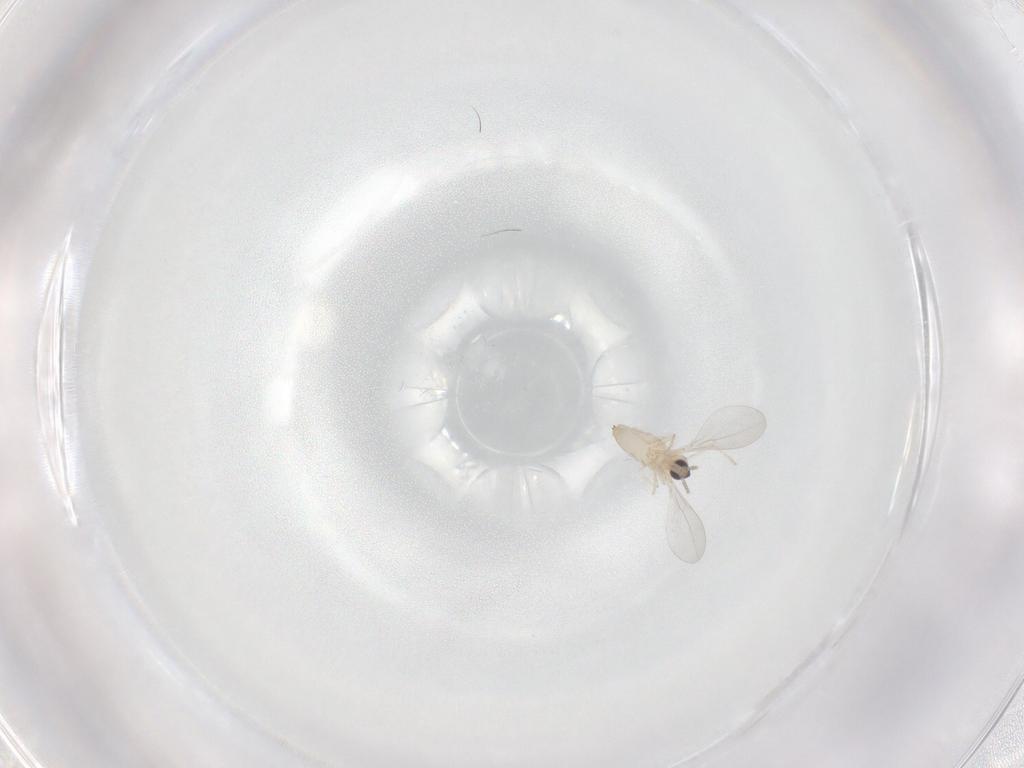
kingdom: Animalia
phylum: Arthropoda
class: Insecta
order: Diptera
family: Cecidomyiidae
